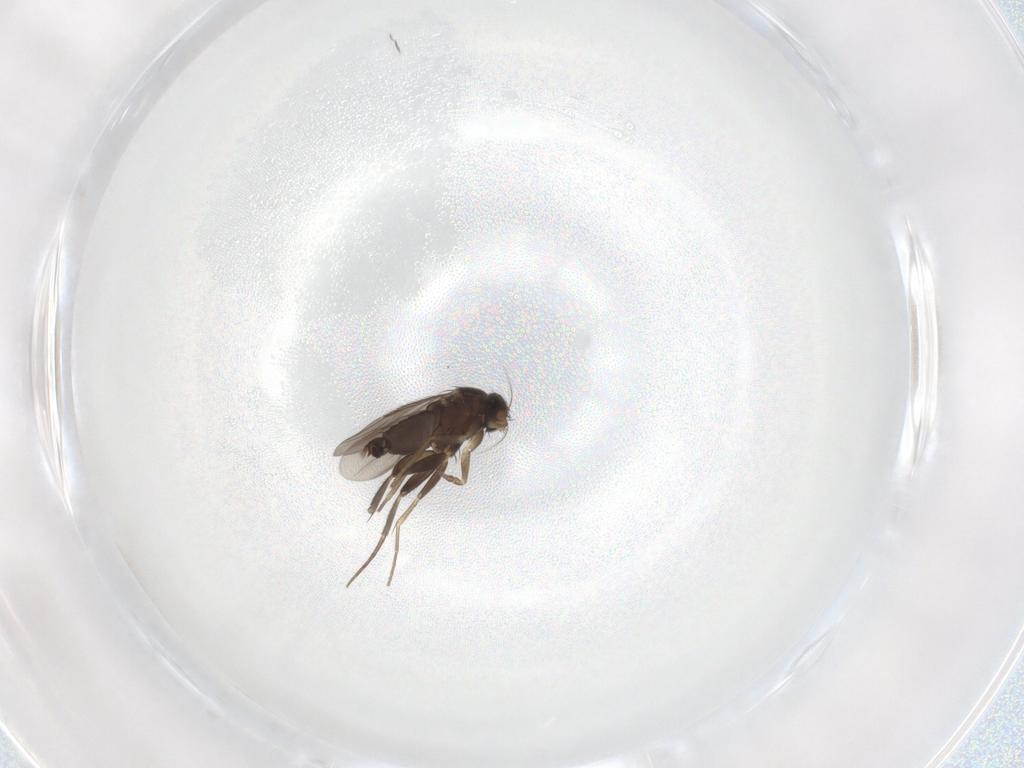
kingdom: Animalia
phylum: Arthropoda
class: Insecta
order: Diptera
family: Phoridae
